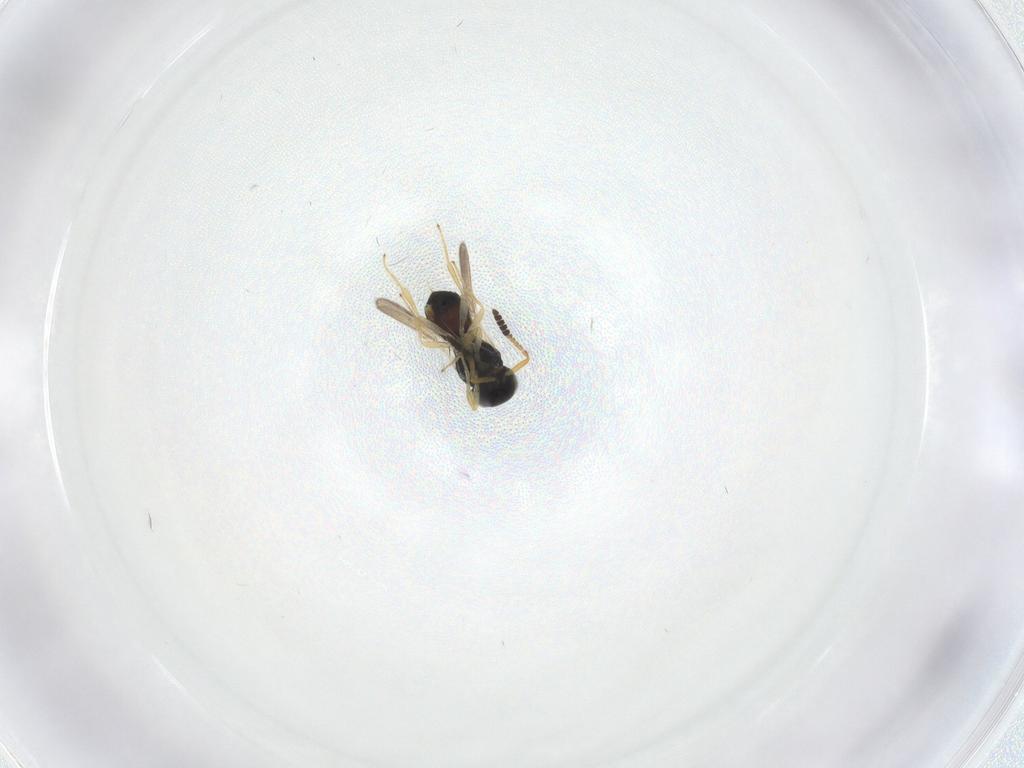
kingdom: Animalia
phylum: Arthropoda
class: Insecta
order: Hymenoptera
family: Scelionidae
